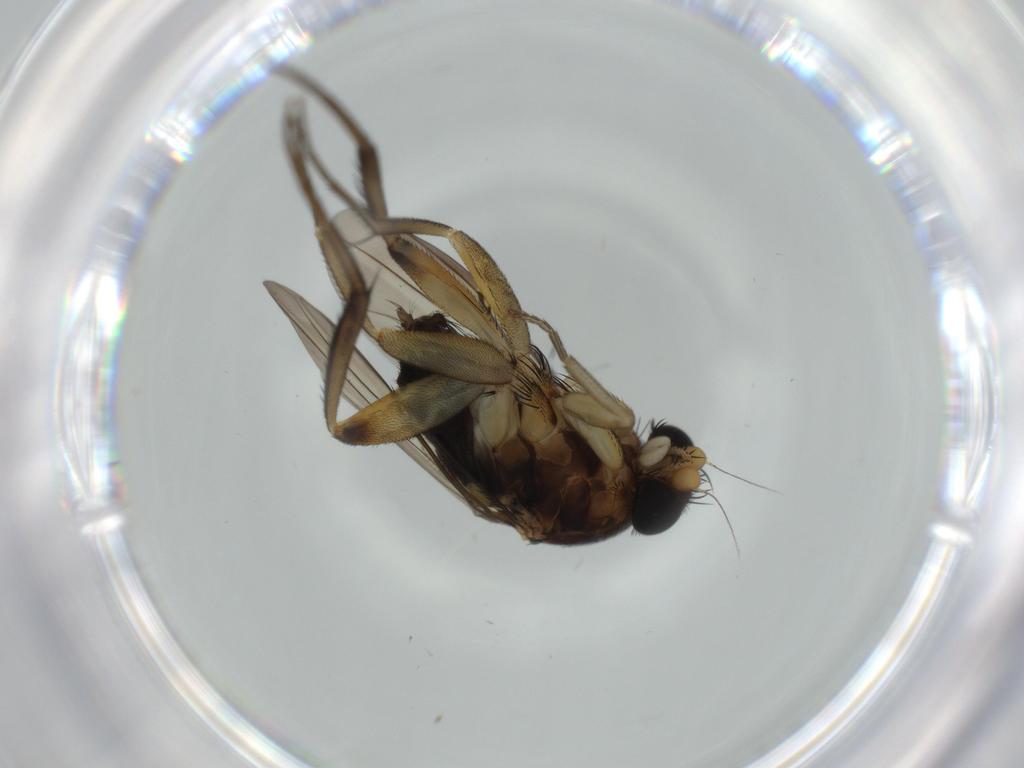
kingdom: Animalia
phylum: Arthropoda
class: Insecta
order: Diptera
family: Phoridae
